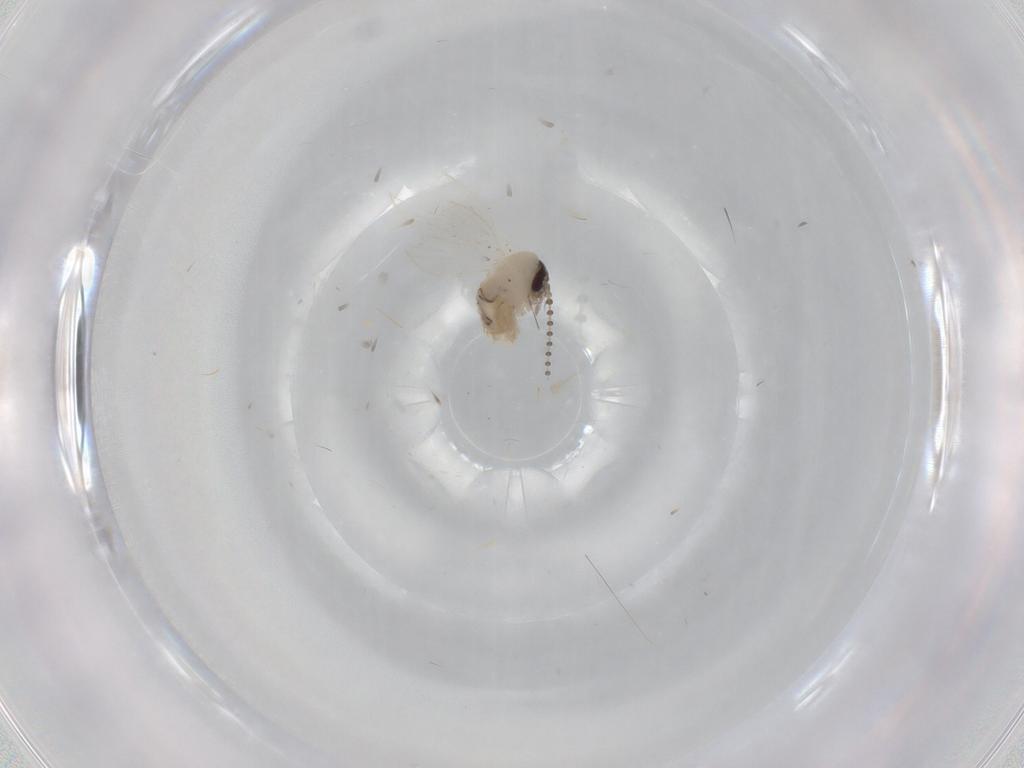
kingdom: Animalia
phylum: Arthropoda
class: Insecta
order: Diptera
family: Psychodidae
